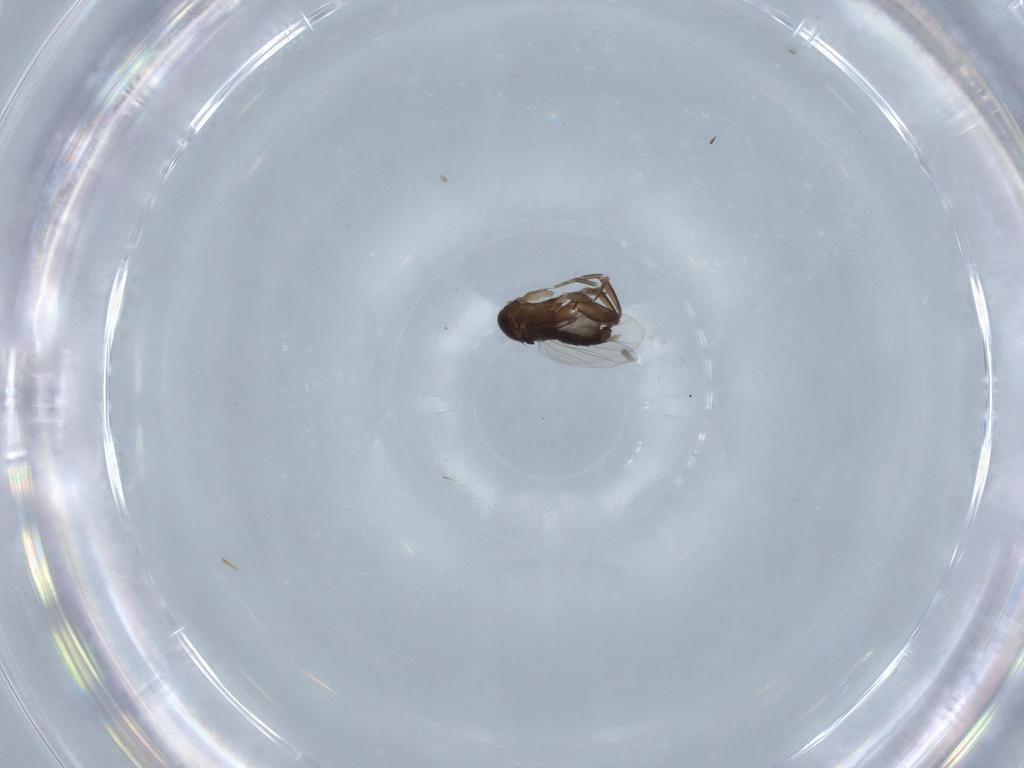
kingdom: Animalia
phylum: Arthropoda
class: Insecta
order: Diptera
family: Phoridae
